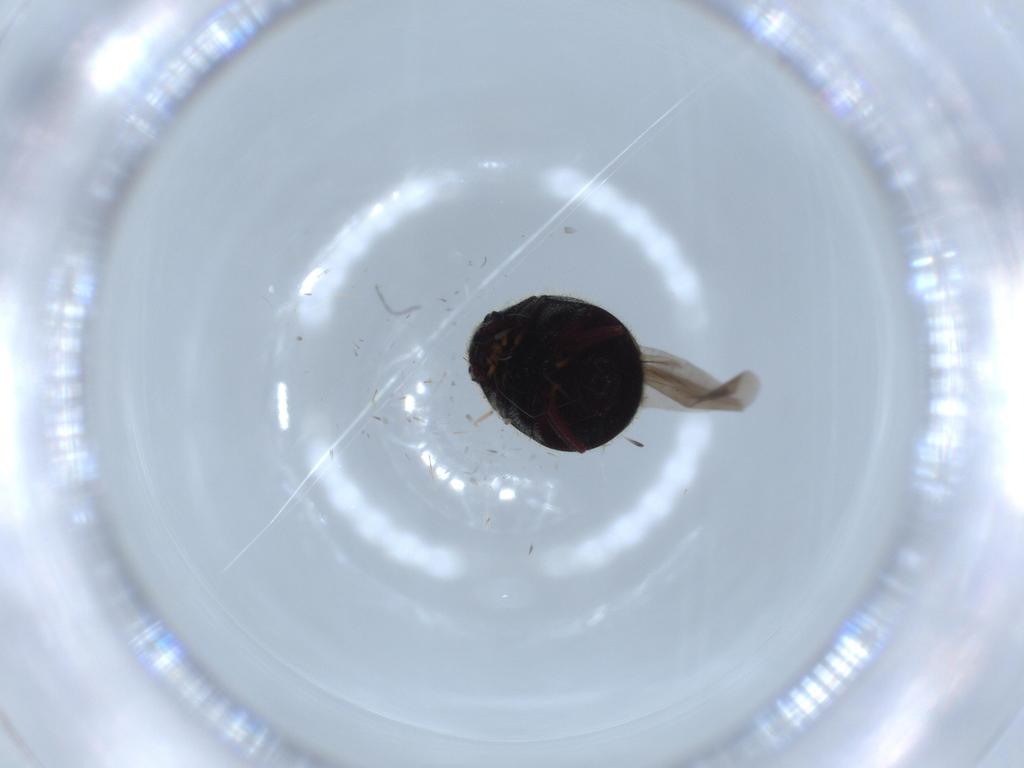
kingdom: Animalia
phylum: Arthropoda
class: Insecta
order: Coleoptera
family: Ptinidae
